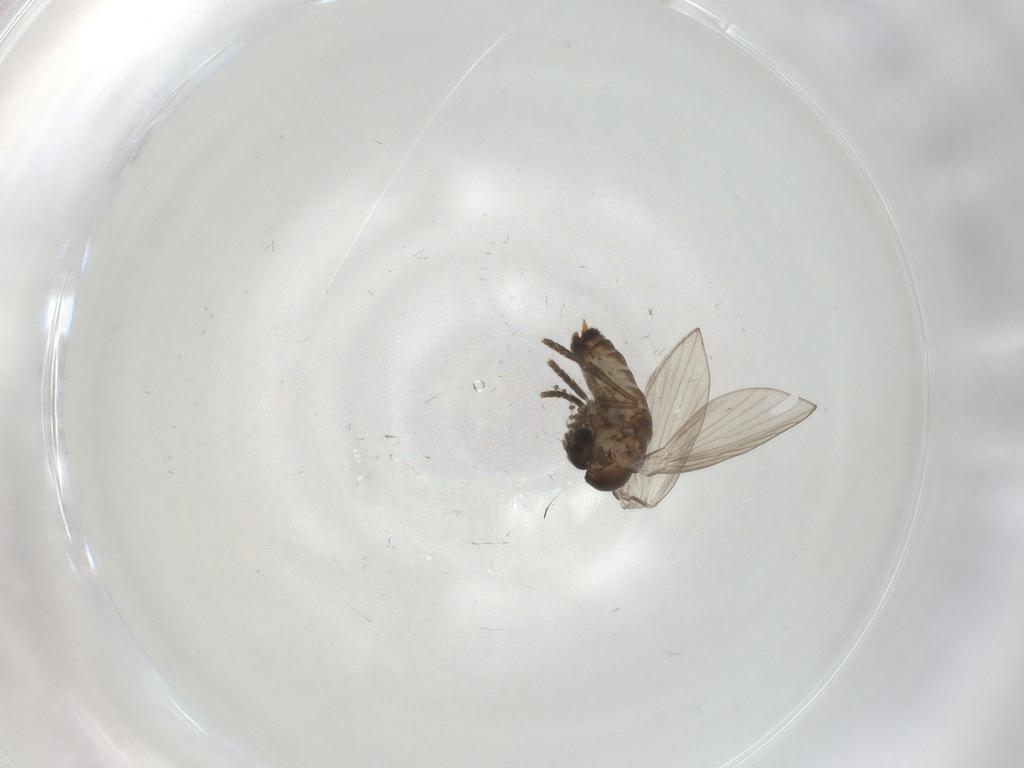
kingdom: Animalia
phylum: Arthropoda
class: Insecta
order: Diptera
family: Psychodidae
